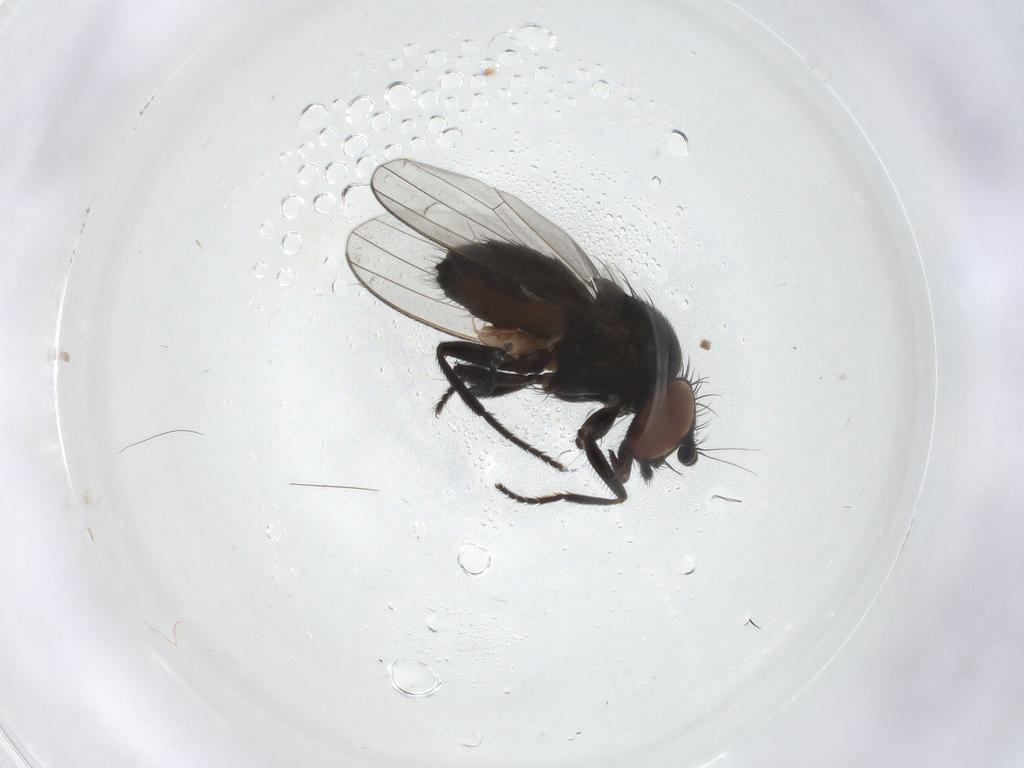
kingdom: Animalia
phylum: Arthropoda
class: Insecta
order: Diptera
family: Milichiidae
